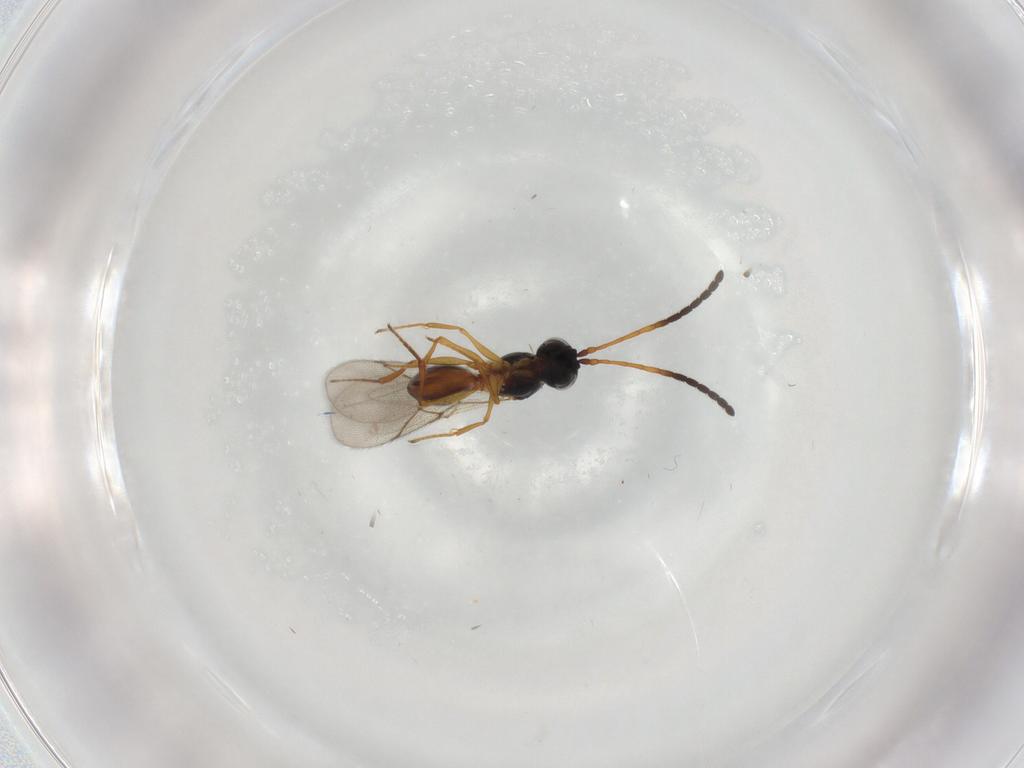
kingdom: Animalia
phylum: Arthropoda
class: Insecta
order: Hymenoptera
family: Figitidae
